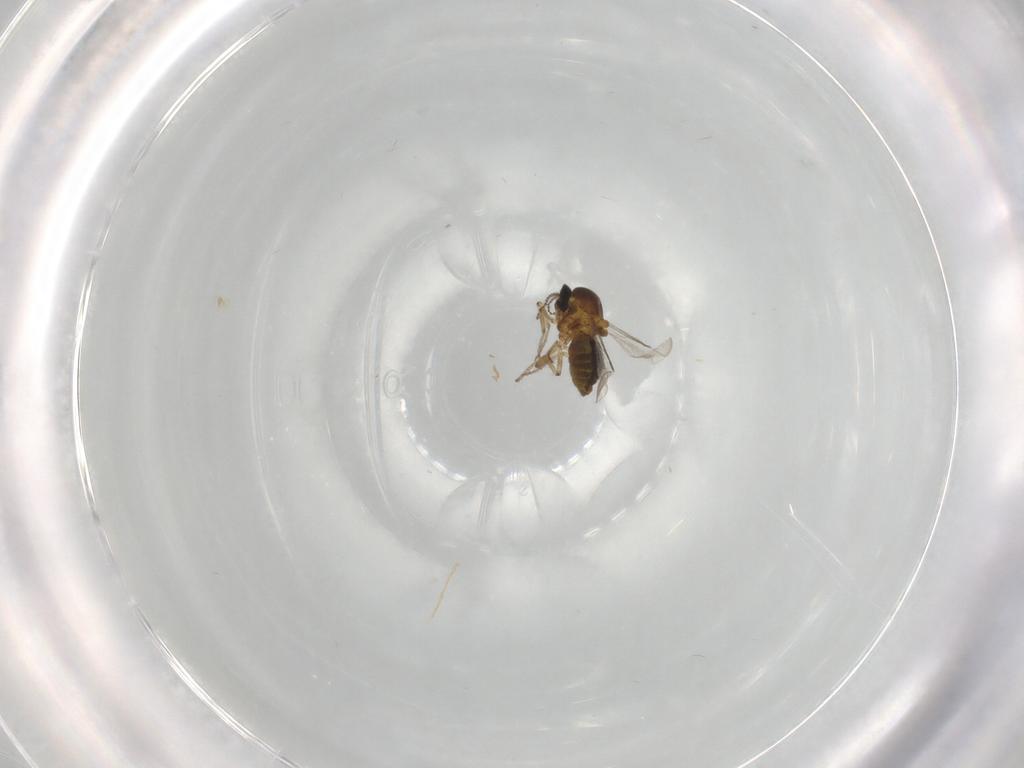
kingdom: Animalia
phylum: Arthropoda
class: Insecta
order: Diptera
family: Ceratopogonidae
